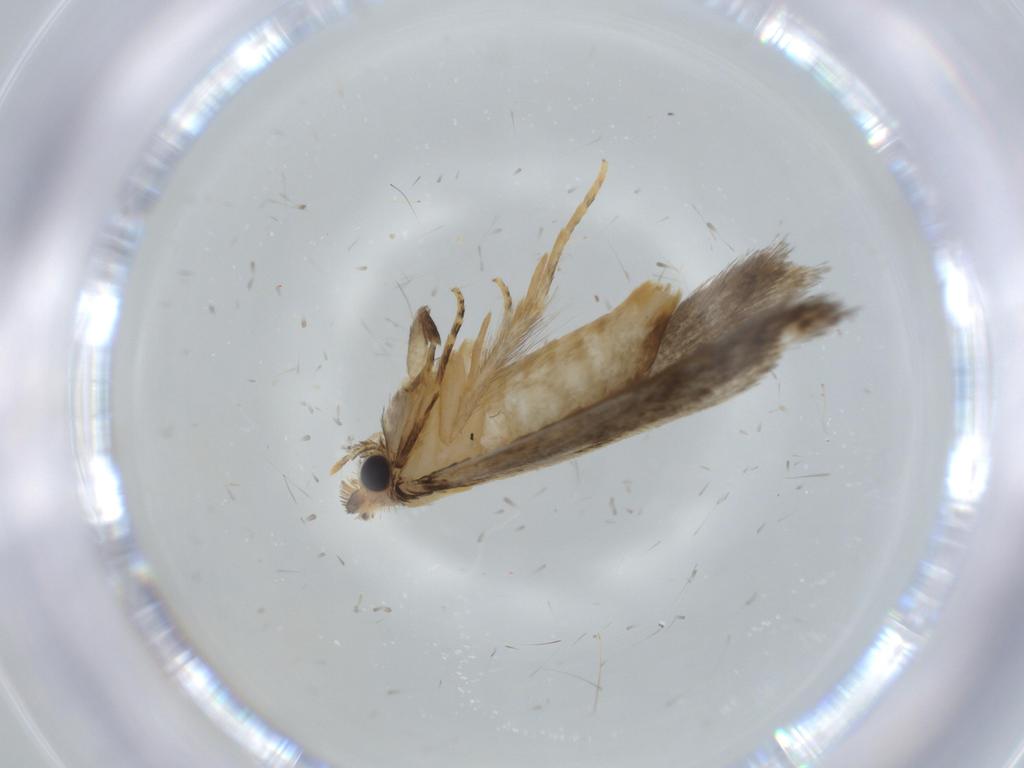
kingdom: Animalia
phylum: Arthropoda
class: Insecta
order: Lepidoptera
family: Tineidae
